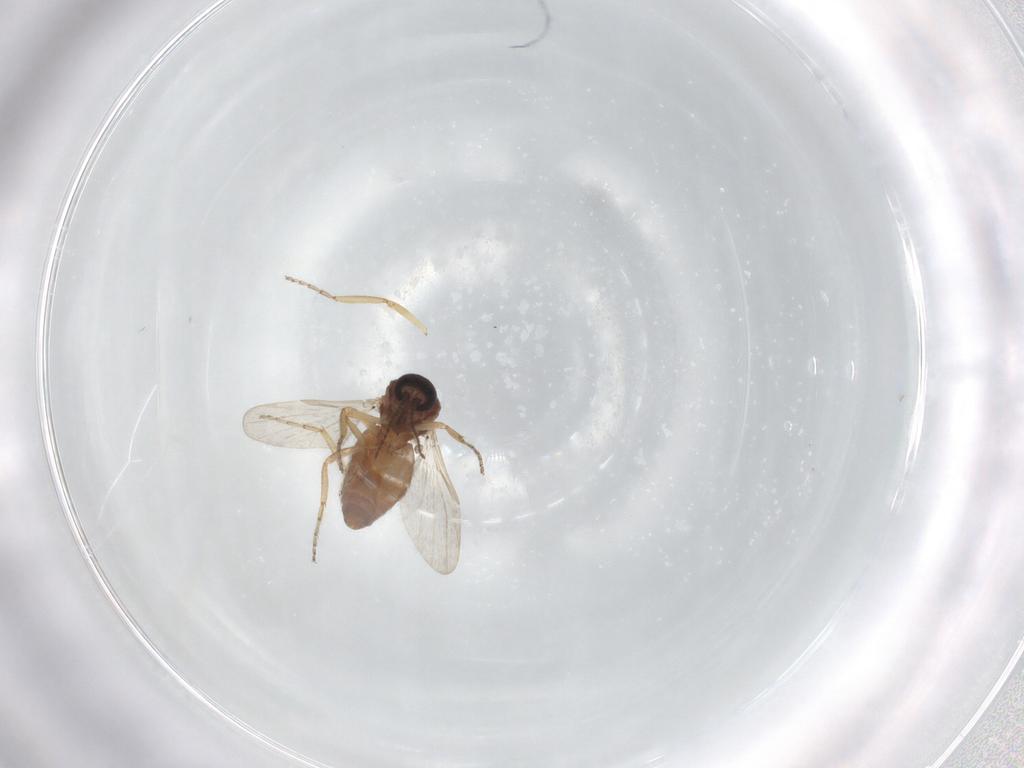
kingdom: Animalia
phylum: Arthropoda
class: Insecta
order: Diptera
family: Ceratopogonidae
